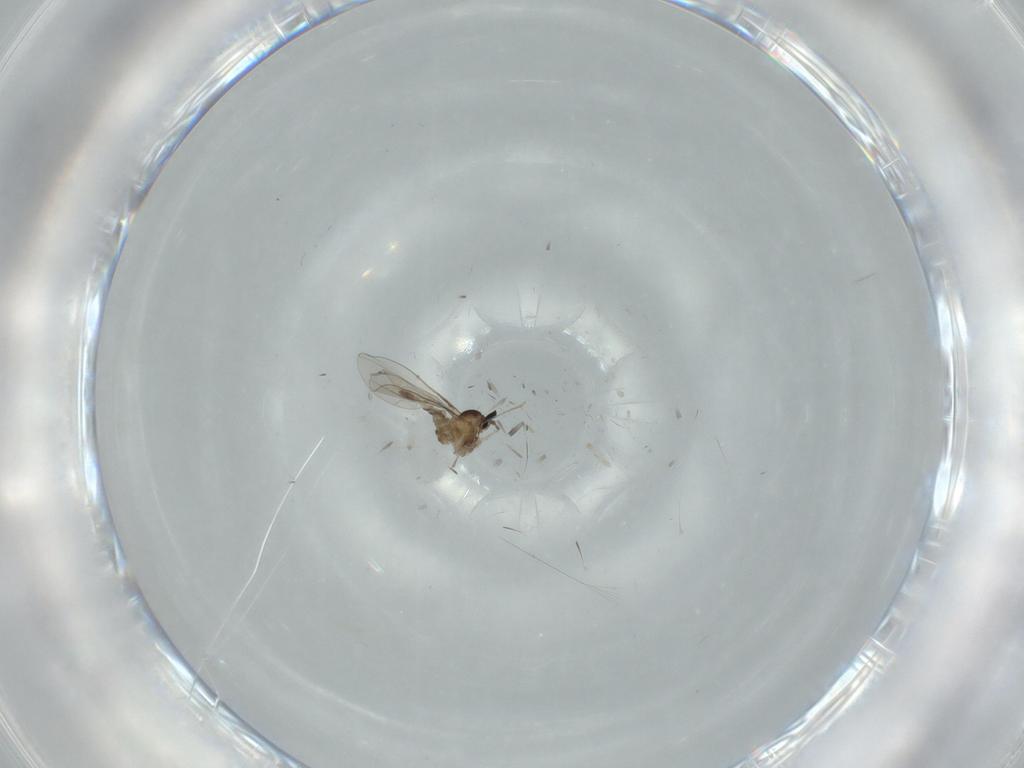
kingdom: Animalia
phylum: Arthropoda
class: Insecta
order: Diptera
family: Cecidomyiidae
